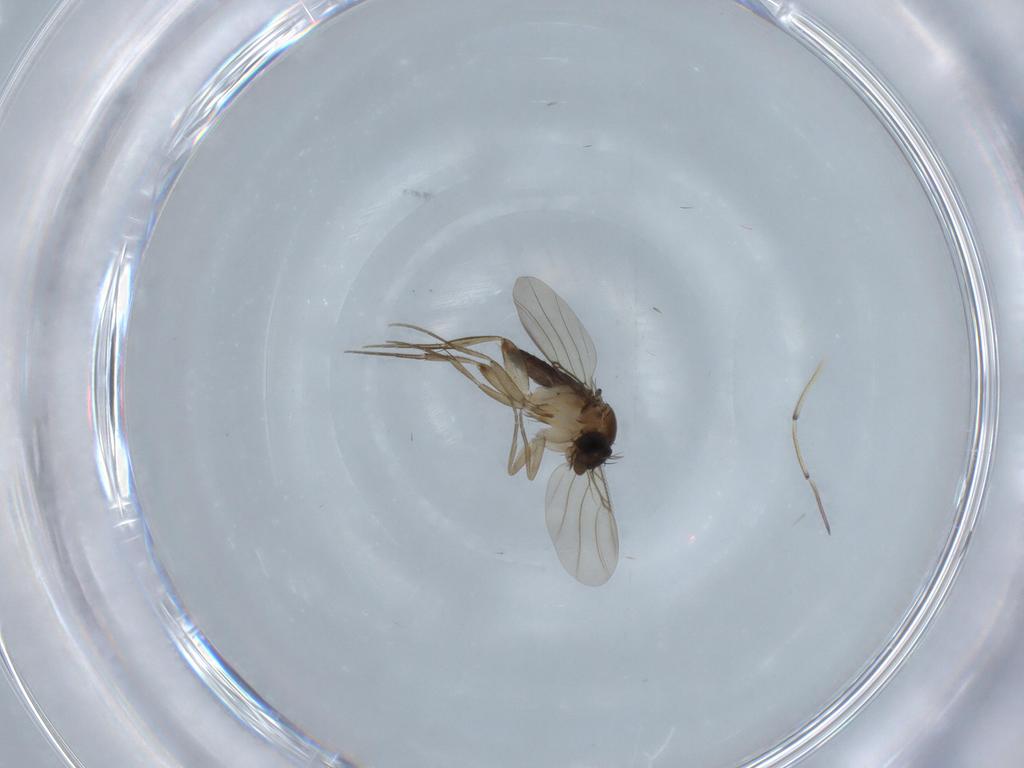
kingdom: Animalia
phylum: Arthropoda
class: Insecta
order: Diptera
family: Phoridae
